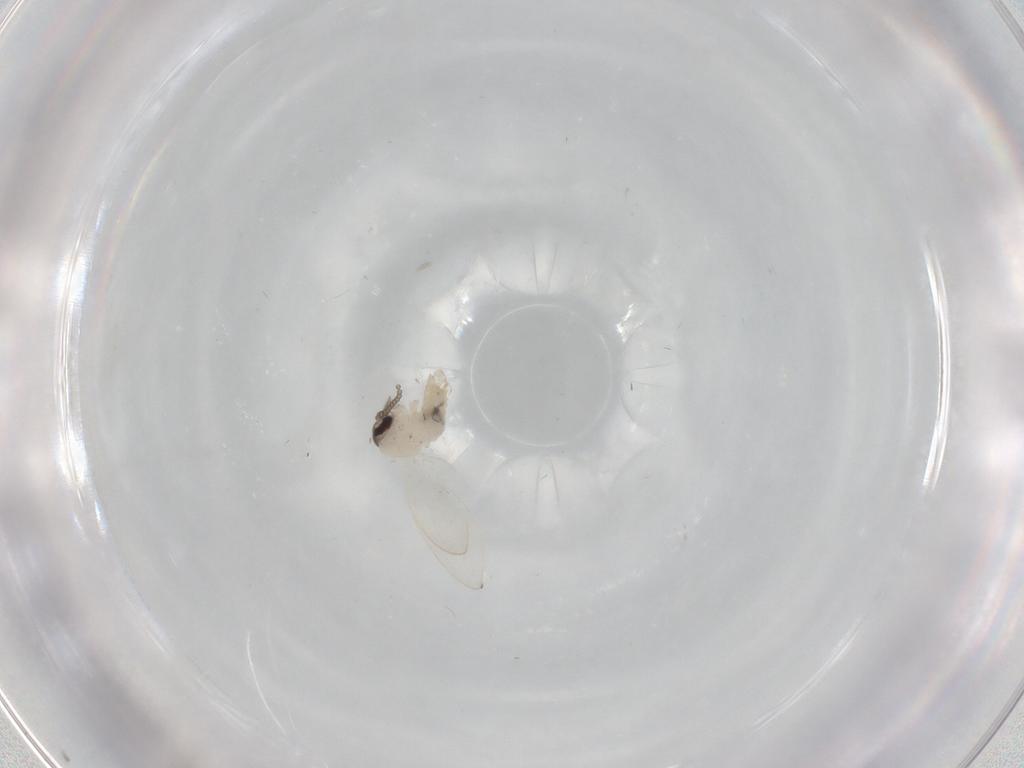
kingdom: Animalia
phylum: Arthropoda
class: Insecta
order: Diptera
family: Psychodidae
